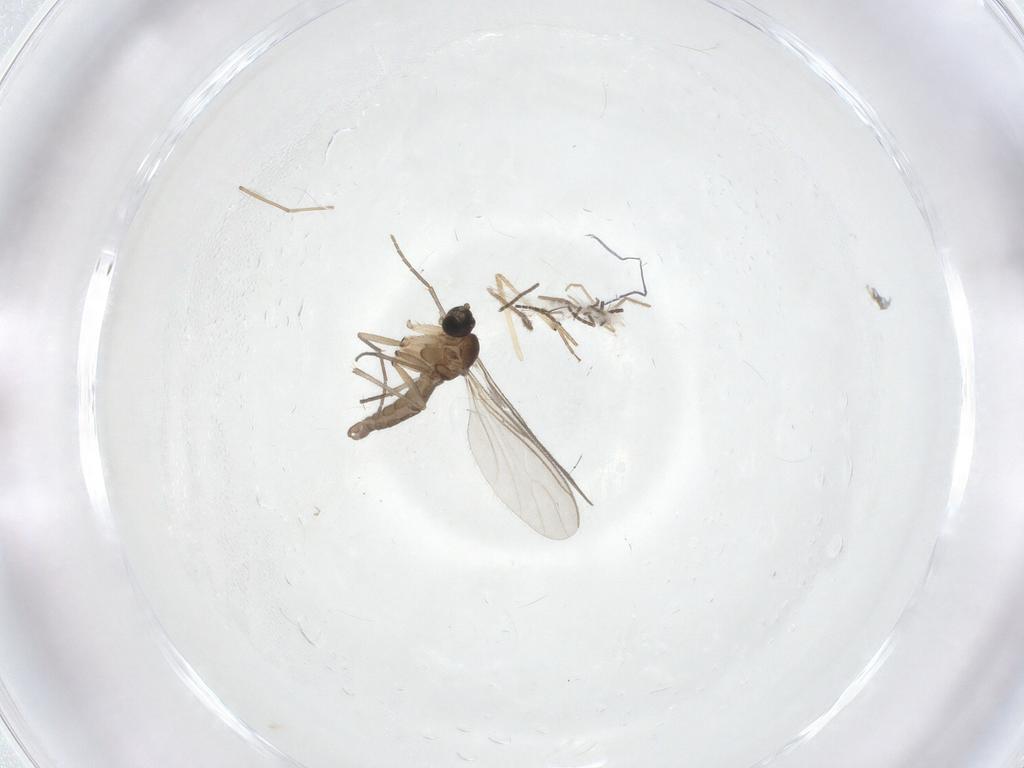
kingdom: Animalia
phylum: Arthropoda
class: Insecta
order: Diptera
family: Sciaridae
